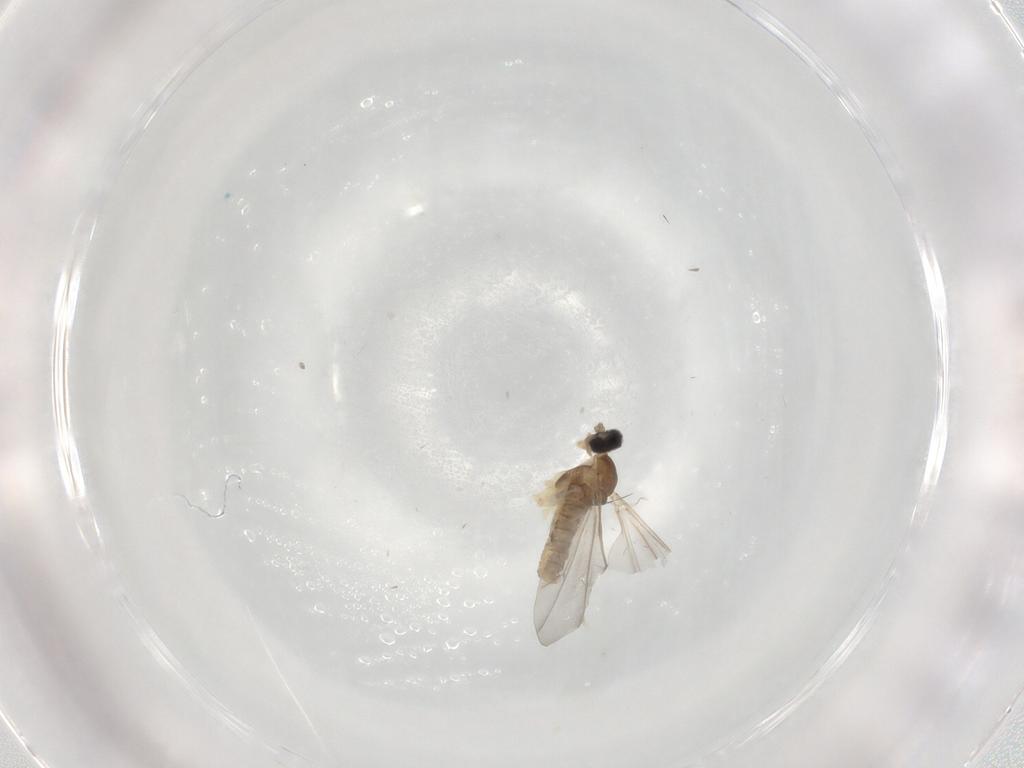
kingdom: Animalia
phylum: Arthropoda
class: Insecta
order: Diptera
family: Cecidomyiidae
